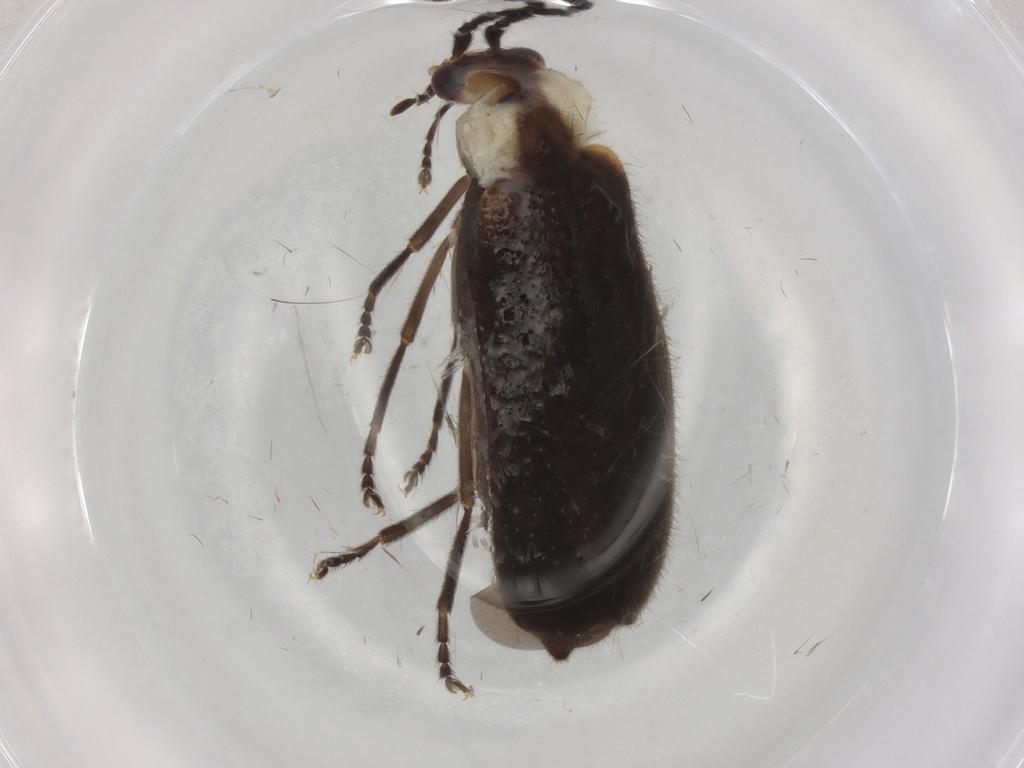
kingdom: Animalia
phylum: Arthropoda
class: Insecta
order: Coleoptera
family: Cantharidae
